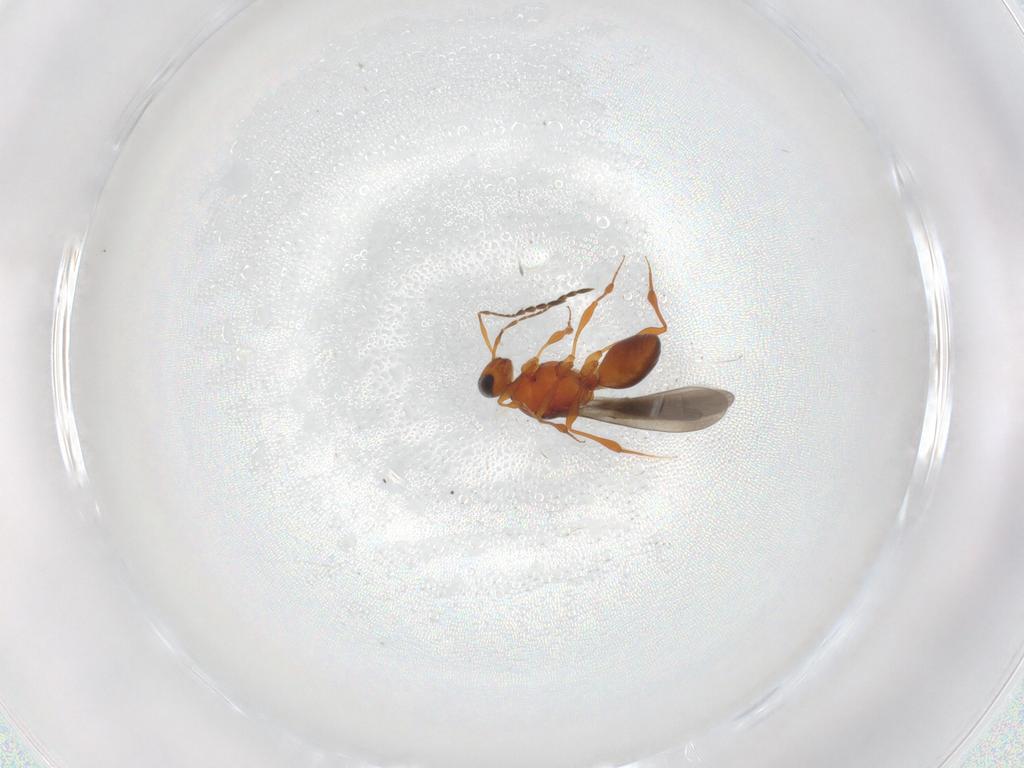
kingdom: Animalia
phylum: Arthropoda
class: Insecta
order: Hymenoptera
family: Platygastridae
